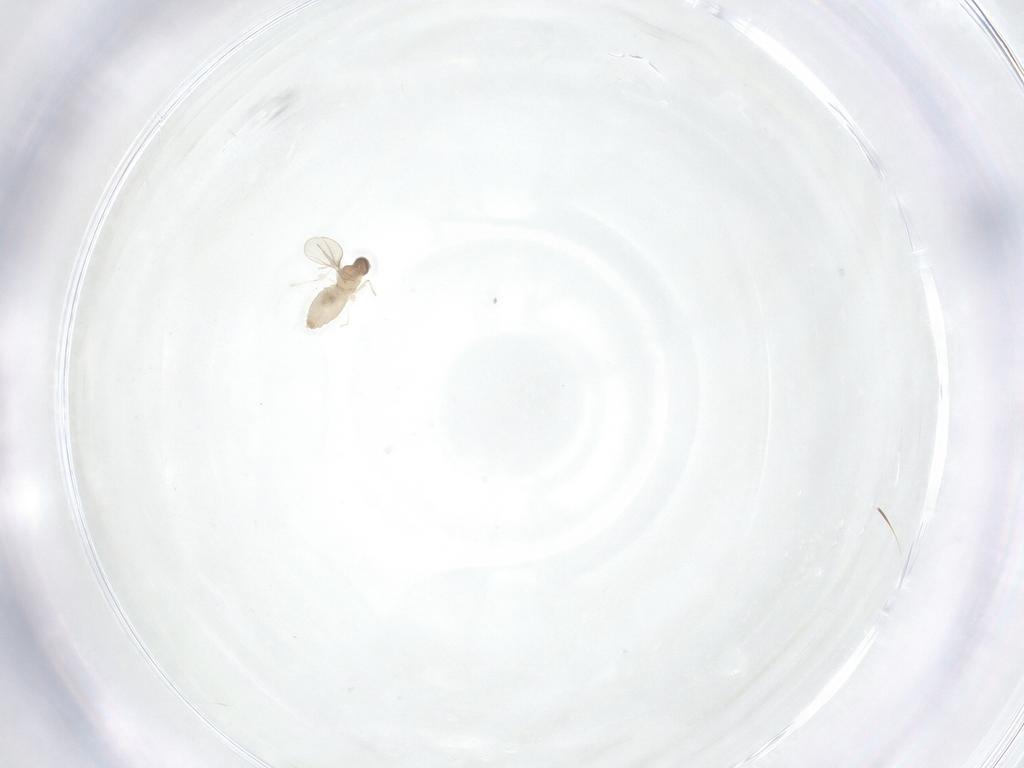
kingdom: Animalia
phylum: Arthropoda
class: Insecta
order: Diptera
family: Cecidomyiidae
